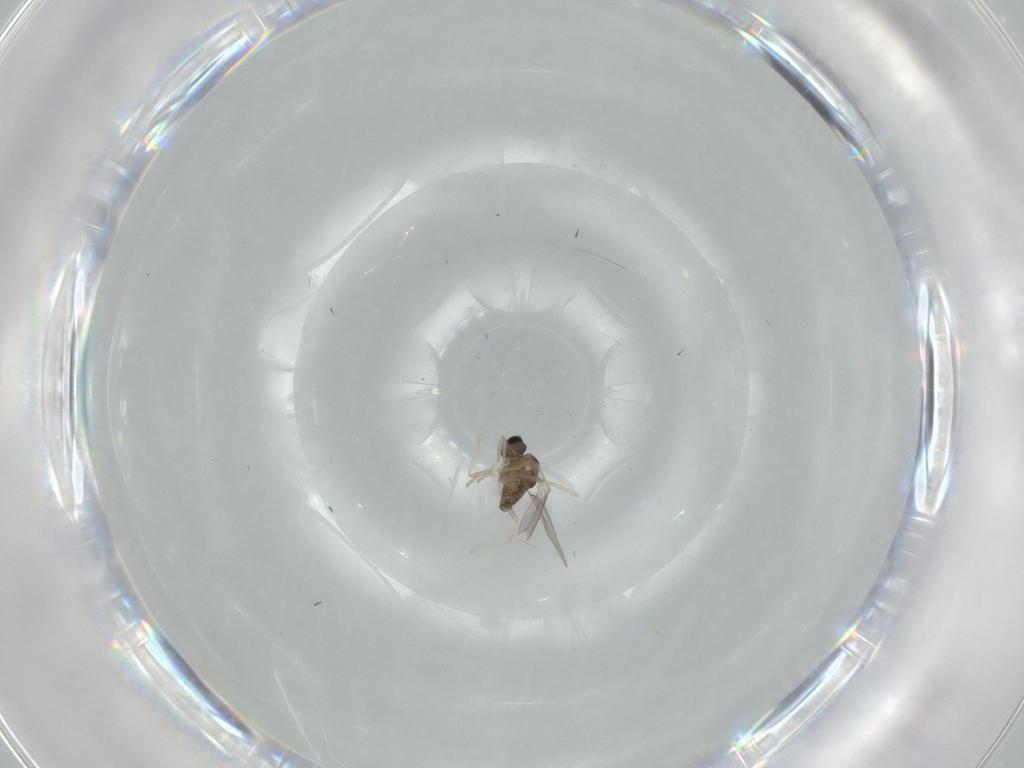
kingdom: Animalia
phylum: Arthropoda
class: Insecta
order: Diptera
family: Cecidomyiidae
